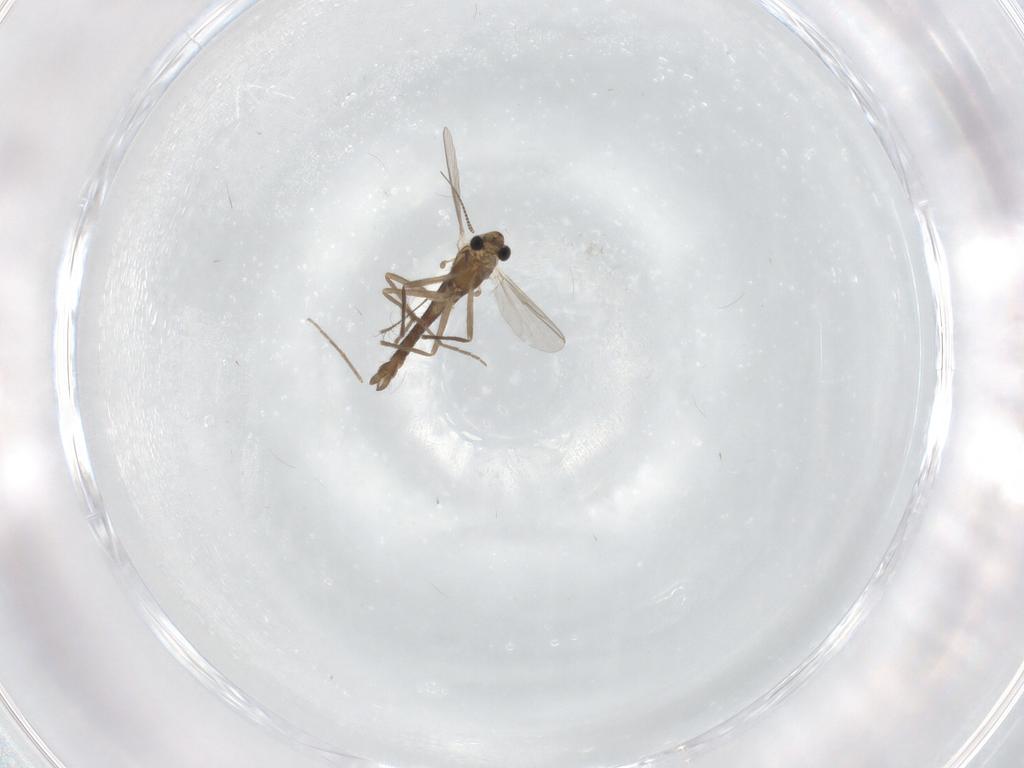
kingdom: Animalia
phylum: Arthropoda
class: Insecta
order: Diptera
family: Chironomidae
